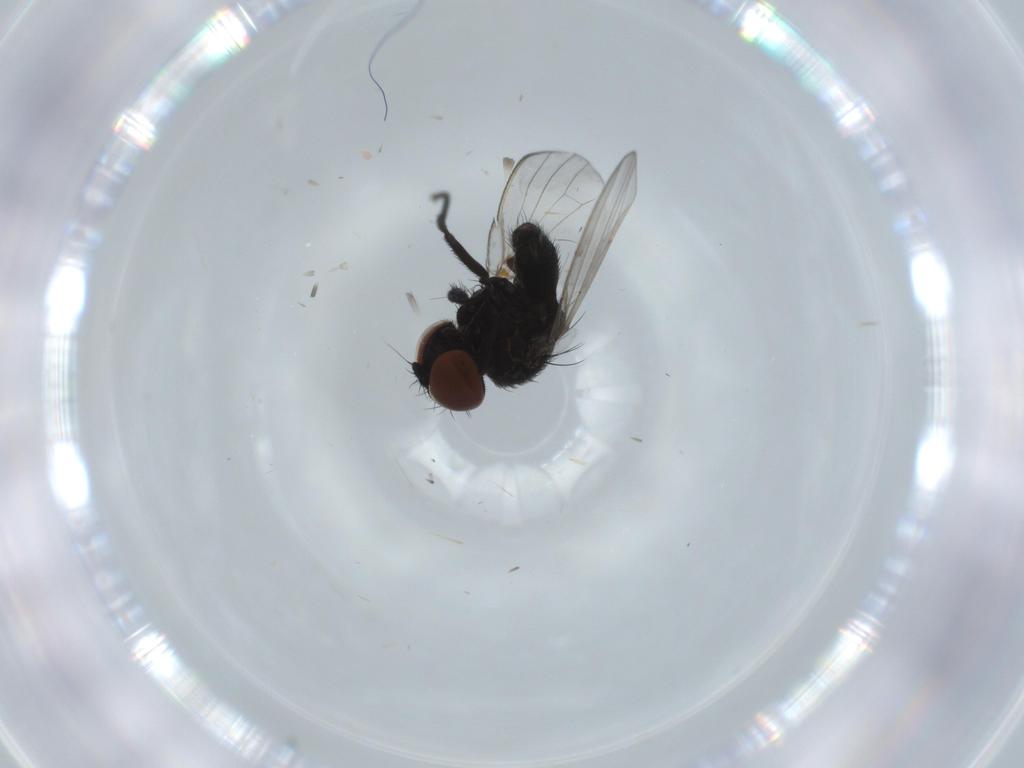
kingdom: Animalia
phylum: Arthropoda
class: Insecta
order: Diptera
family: Milichiidae
